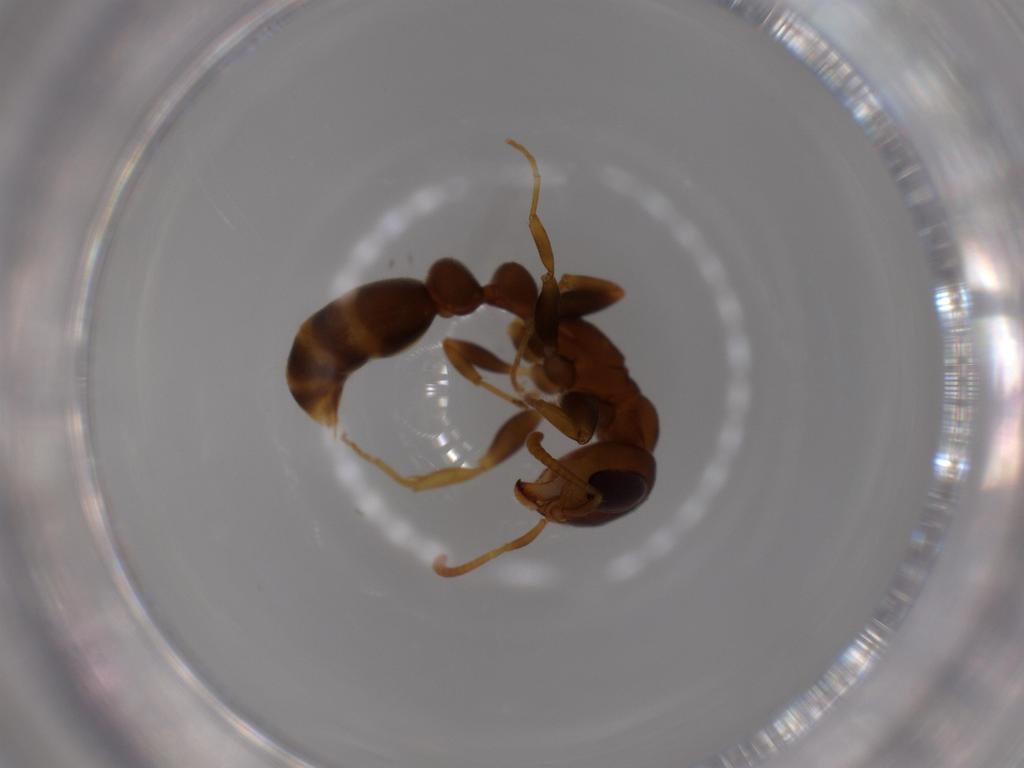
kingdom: Animalia
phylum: Arthropoda
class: Insecta
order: Hymenoptera
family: Formicidae
